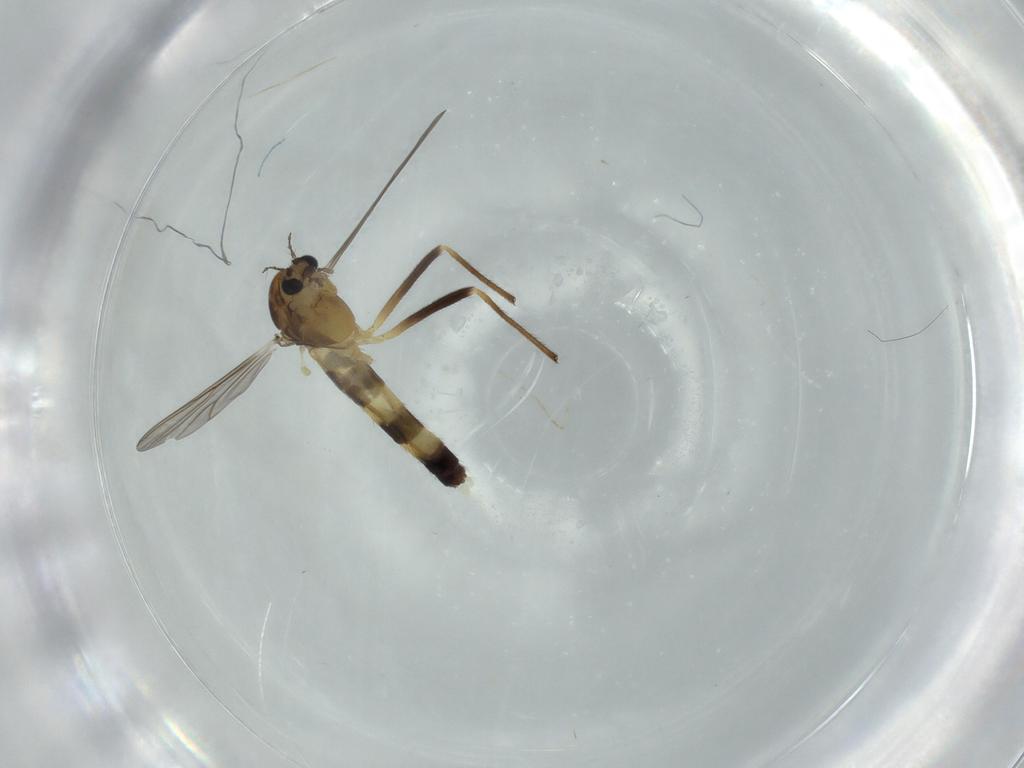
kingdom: Animalia
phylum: Arthropoda
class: Insecta
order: Diptera
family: Chironomidae
